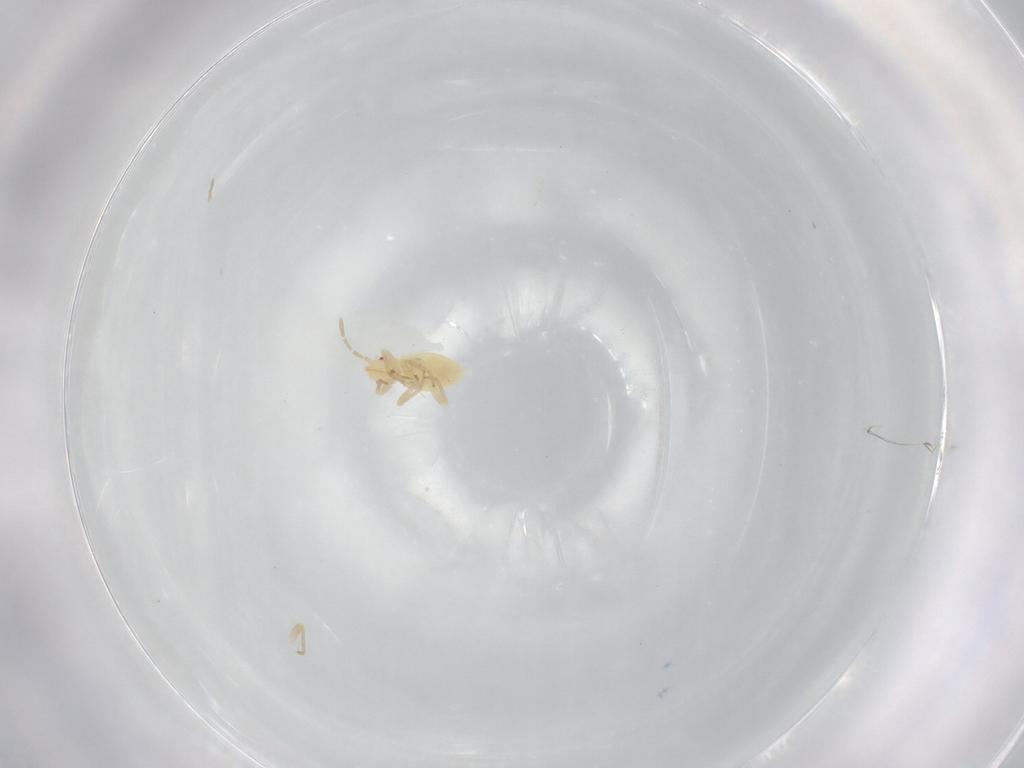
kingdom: Animalia
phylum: Arthropoda
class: Insecta
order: Hemiptera
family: Miridae
